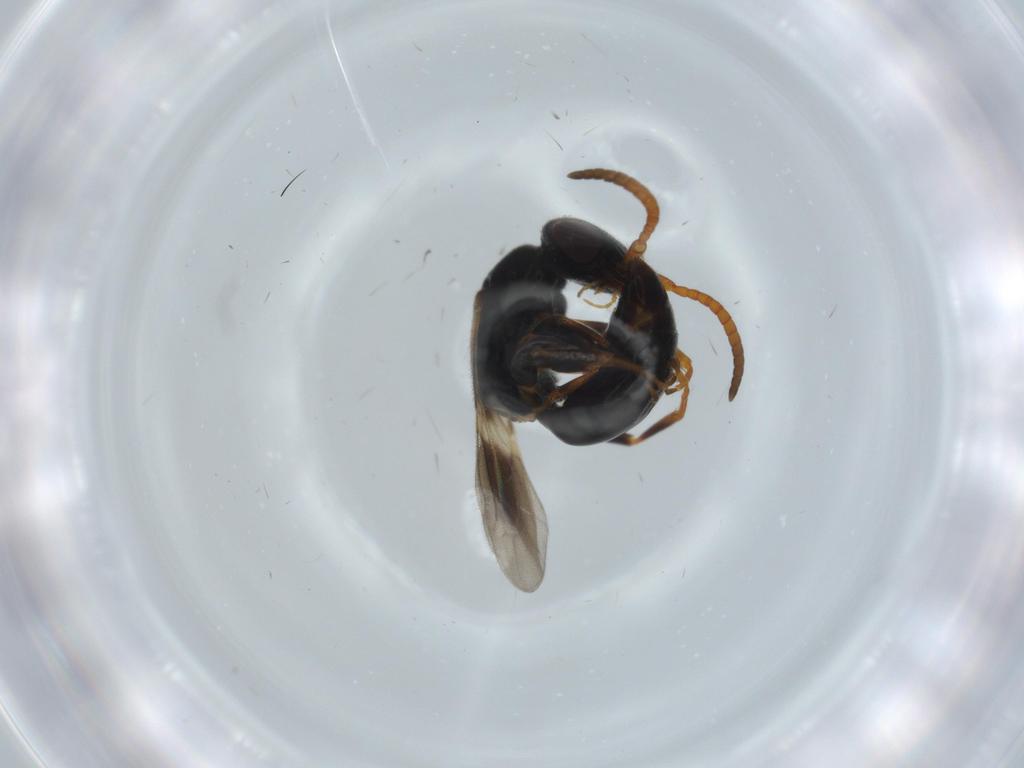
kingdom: Animalia
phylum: Arthropoda
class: Insecta
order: Hymenoptera
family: Bethylidae
